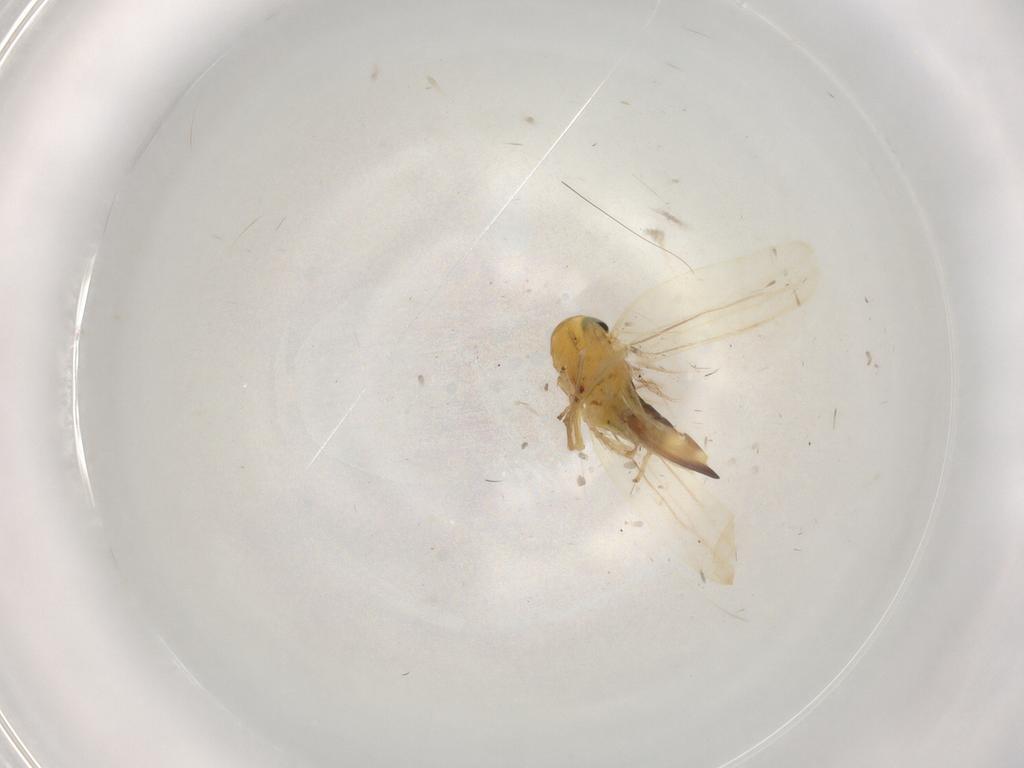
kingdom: Animalia
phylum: Arthropoda
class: Insecta
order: Hemiptera
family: Cicadellidae
